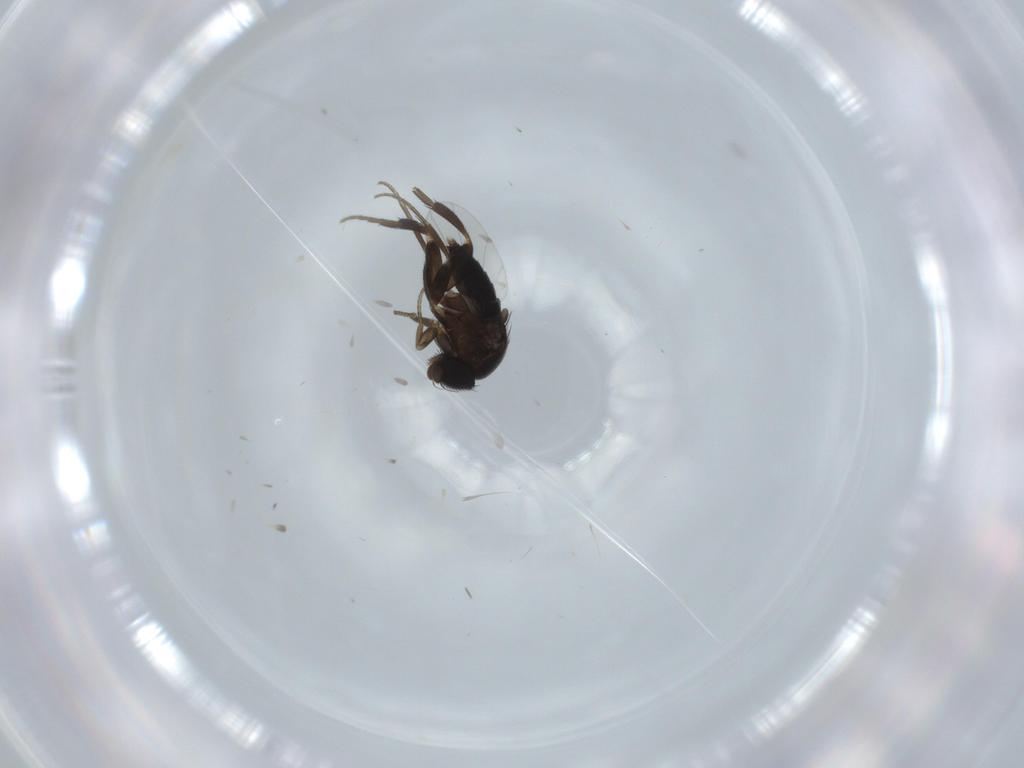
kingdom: Animalia
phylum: Arthropoda
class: Insecta
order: Diptera
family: Phoridae
